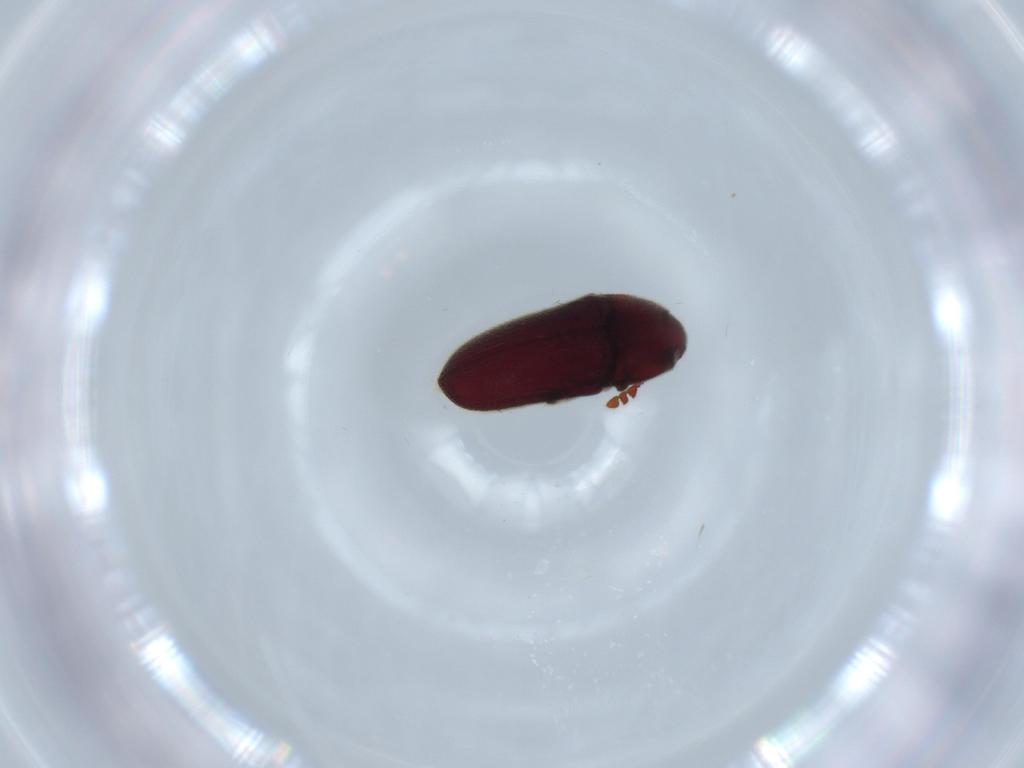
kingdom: Animalia
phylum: Arthropoda
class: Insecta
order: Coleoptera
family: Throscidae
